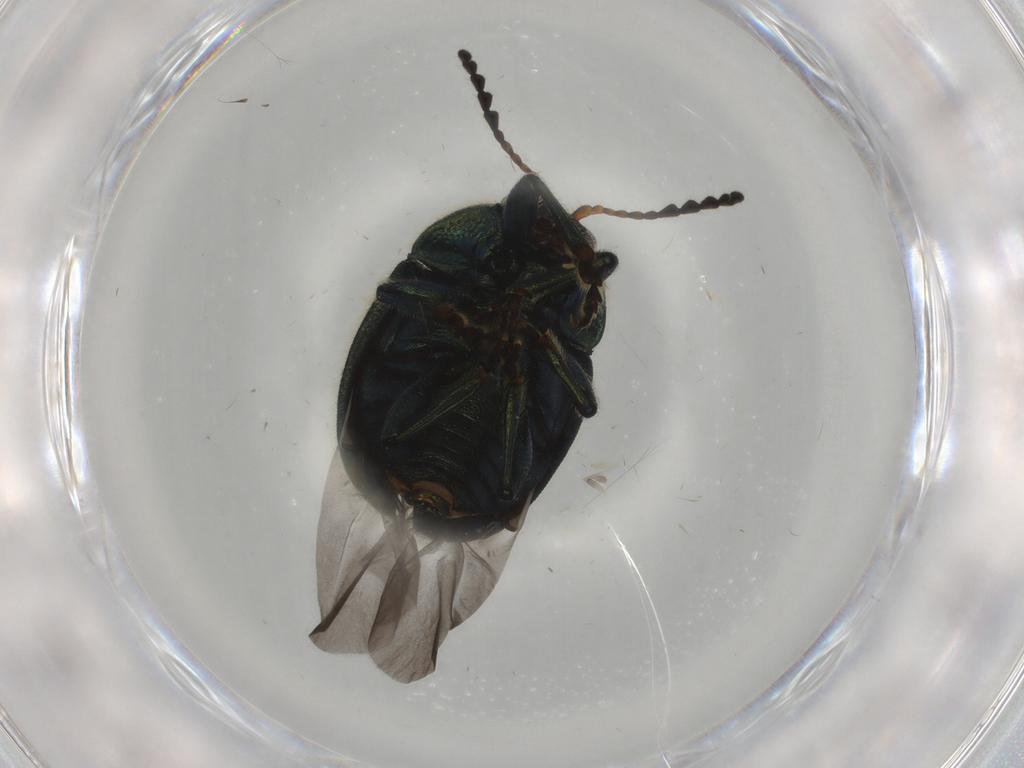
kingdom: Animalia
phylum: Arthropoda
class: Insecta
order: Coleoptera
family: Chrysomelidae
